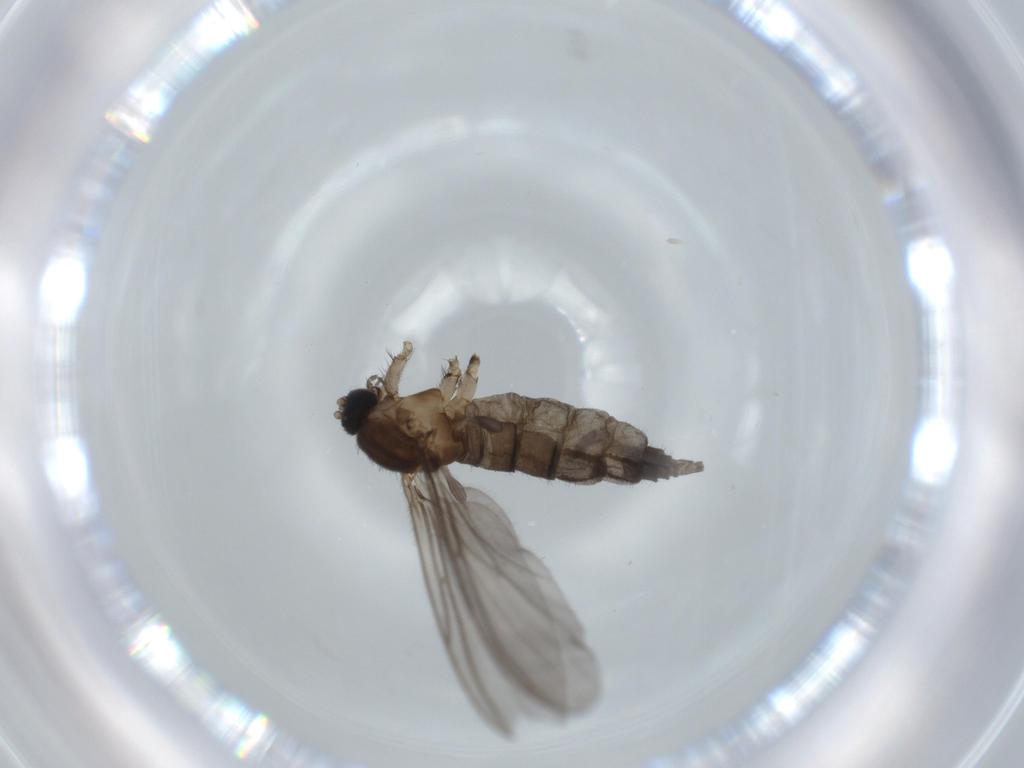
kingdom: Animalia
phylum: Arthropoda
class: Insecta
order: Diptera
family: Sciaridae
